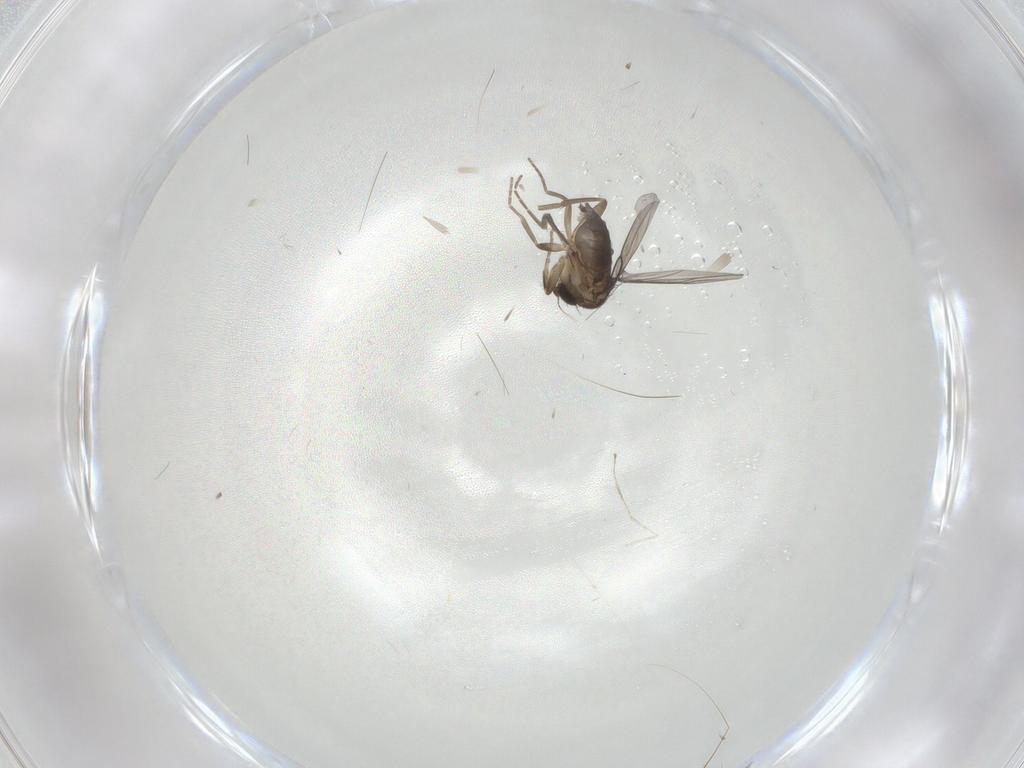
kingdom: Animalia
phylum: Arthropoda
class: Insecta
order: Diptera
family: Phoridae
